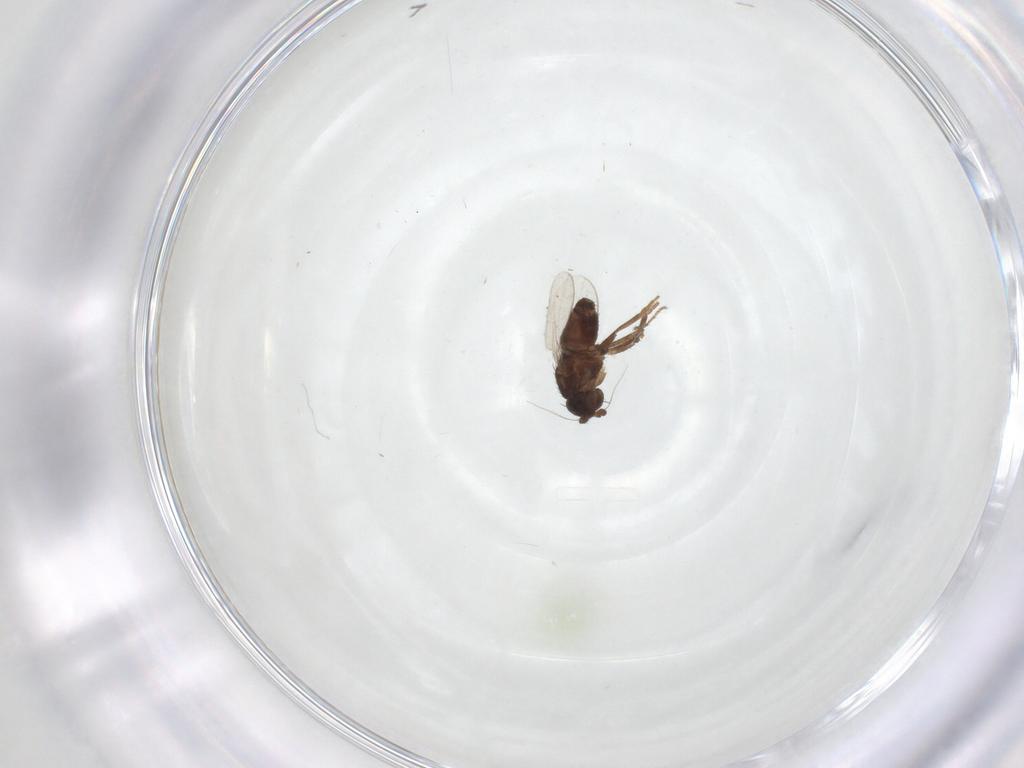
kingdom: Animalia
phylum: Arthropoda
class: Insecta
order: Diptera
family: Sphaeroceridae
